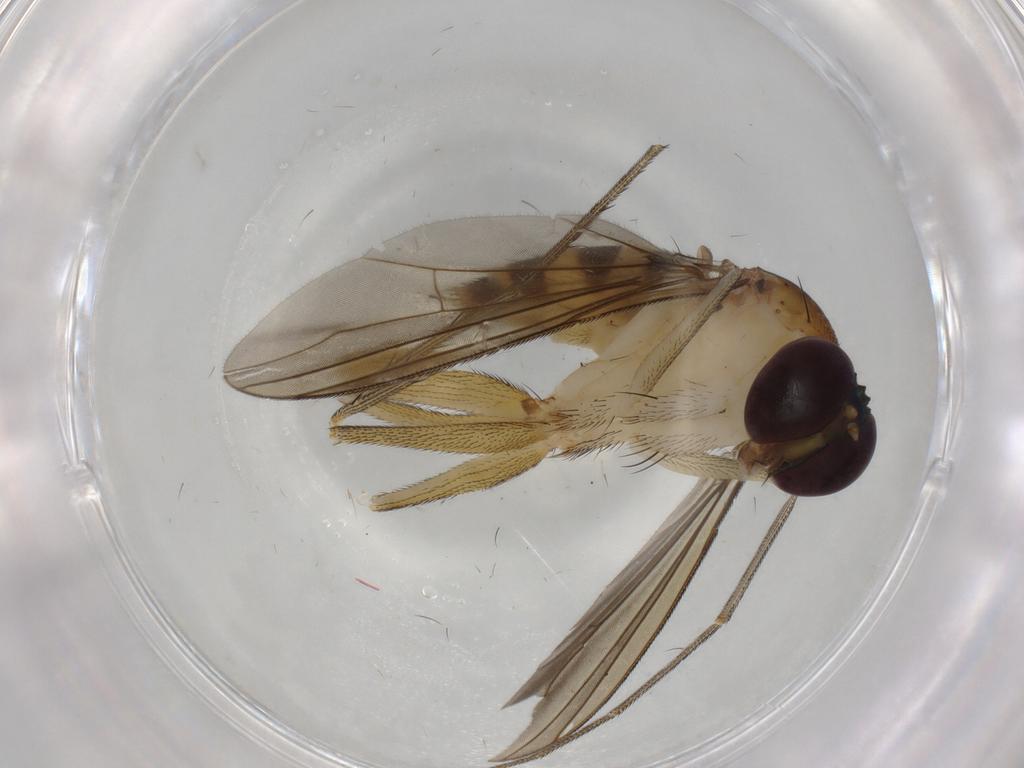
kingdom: Animalia
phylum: Arthropoda
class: Insecta
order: Diptera
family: Dolichopodidae
